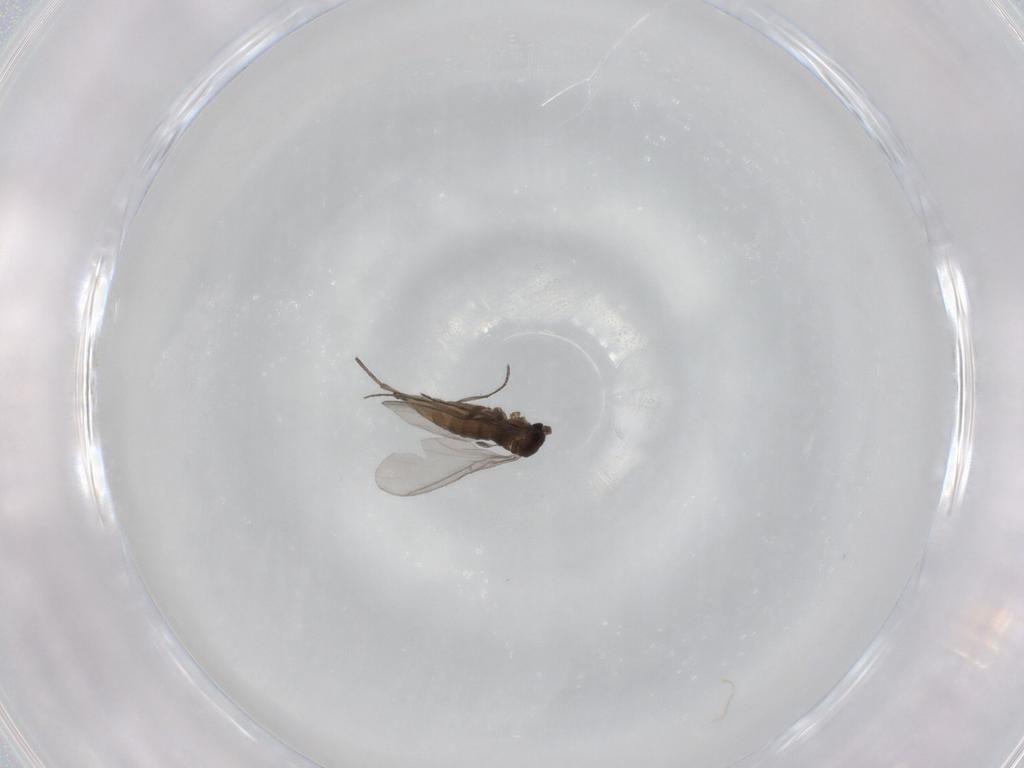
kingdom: Animalia
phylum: Arthropoda
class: Insecta
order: Diptera
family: Sciaridae
